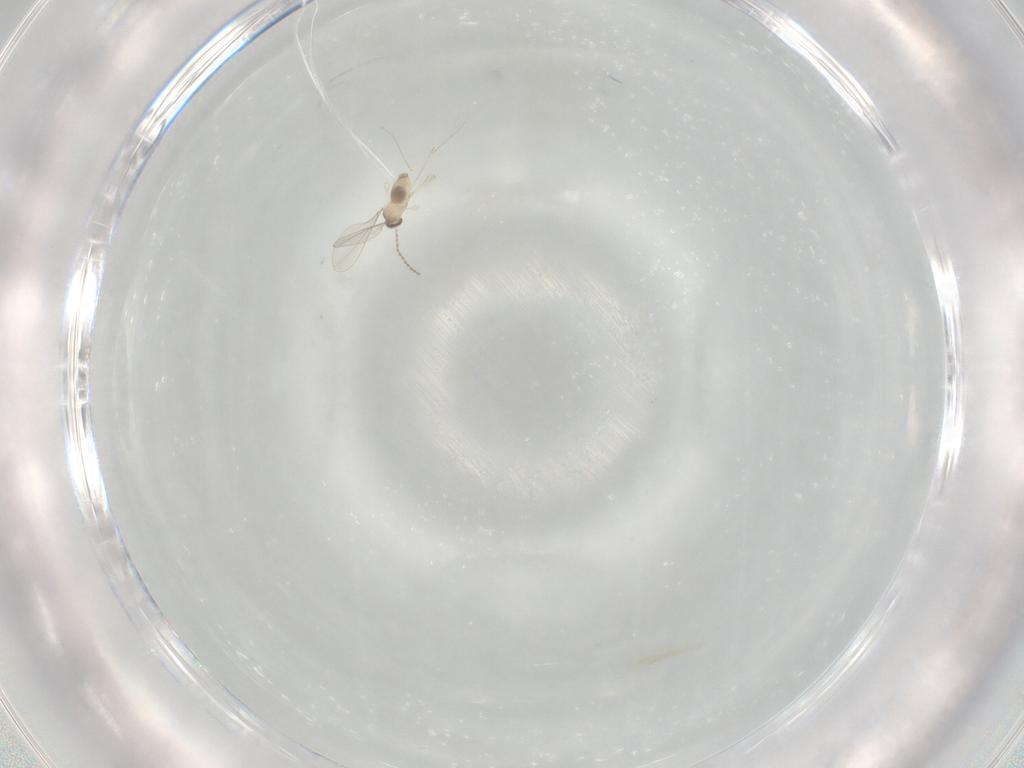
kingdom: Animalia
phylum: Arthropoda
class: Insecta
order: Diptera
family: Cecidomyiidae
